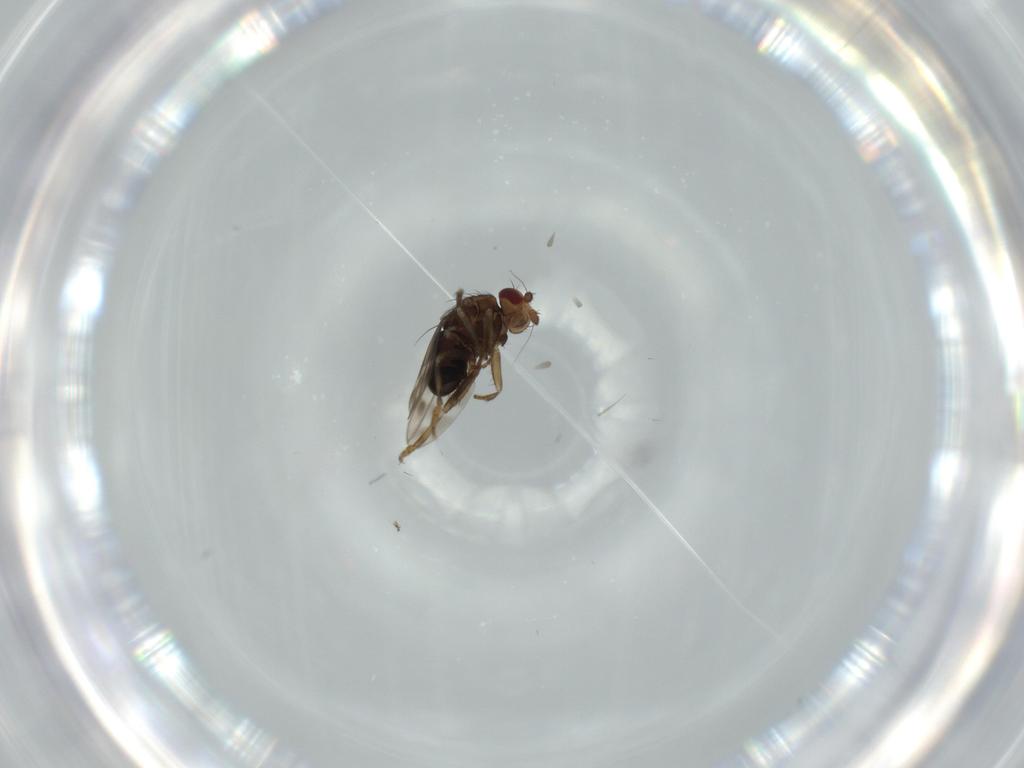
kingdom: Animalia
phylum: Arthropoda
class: Insecta
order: Diptera
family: Sphaeroceridae
